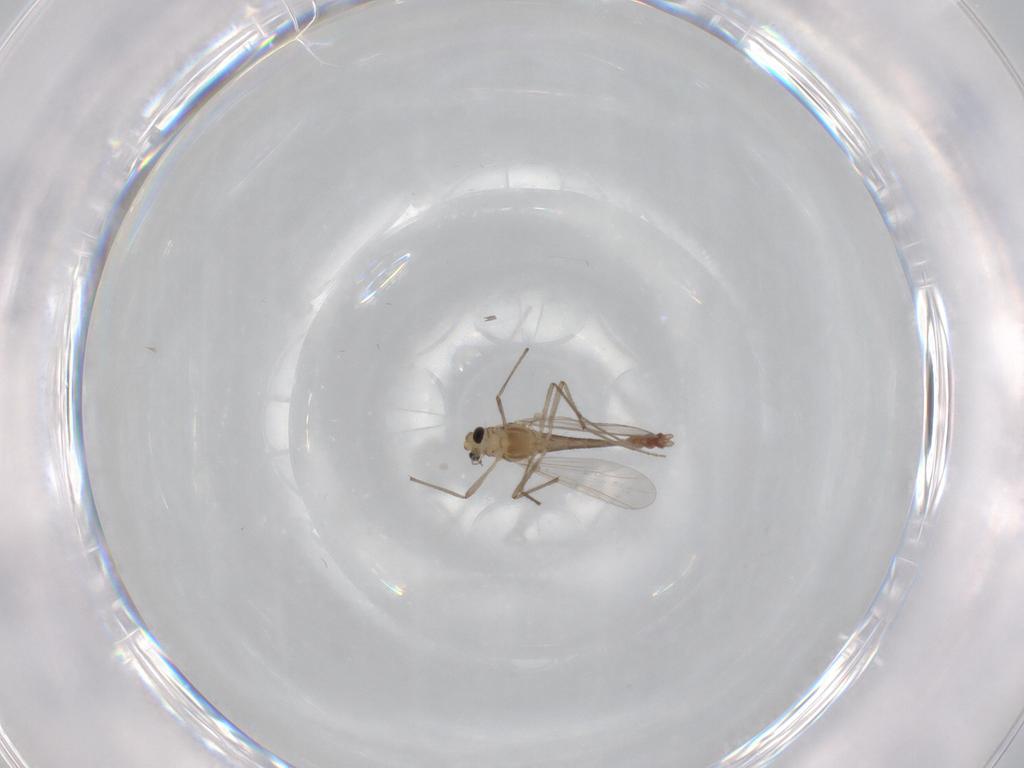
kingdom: Animalia
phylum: Arthropoda
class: Insecta
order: Diptera
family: Chironomidae
